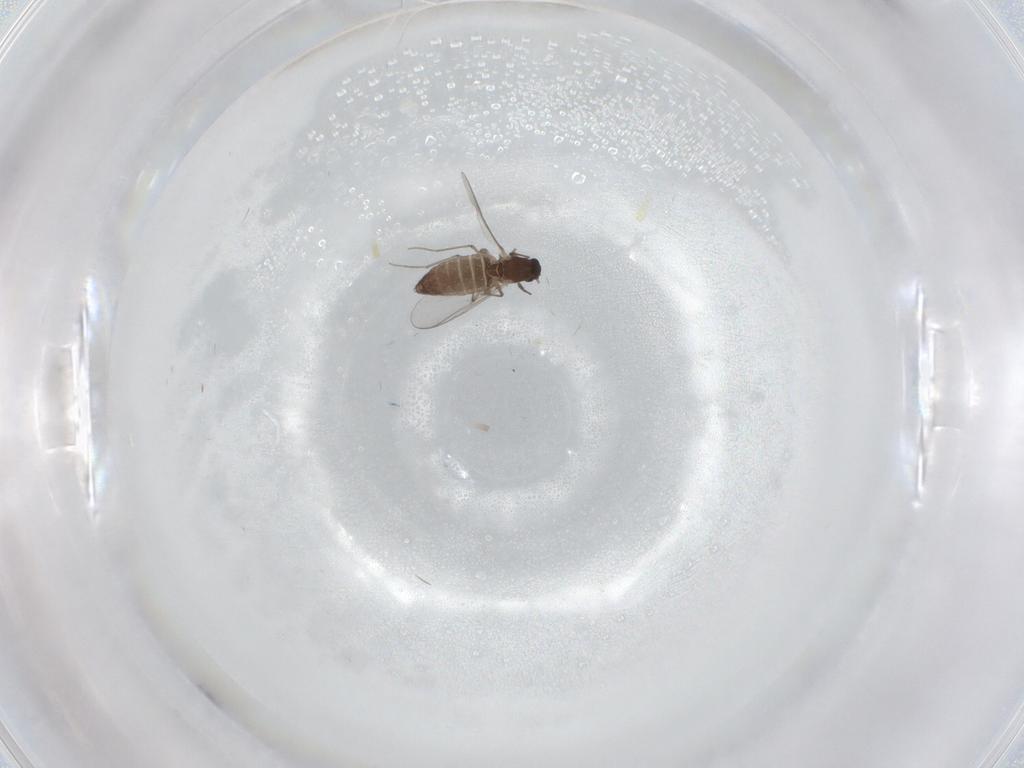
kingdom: Animalia
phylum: Arthropoda
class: Insecta
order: Diptera
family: Chironomidae
